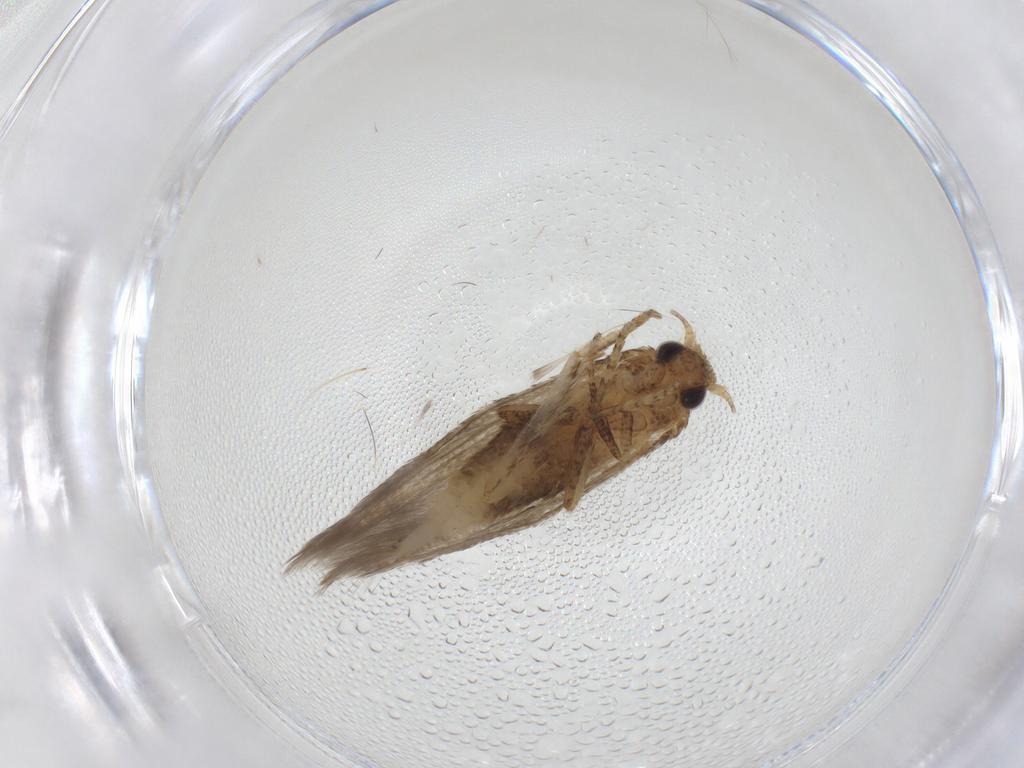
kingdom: Animalia
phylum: Arthropoda
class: Insecta
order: Lepidoptera
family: Blastobasidae
